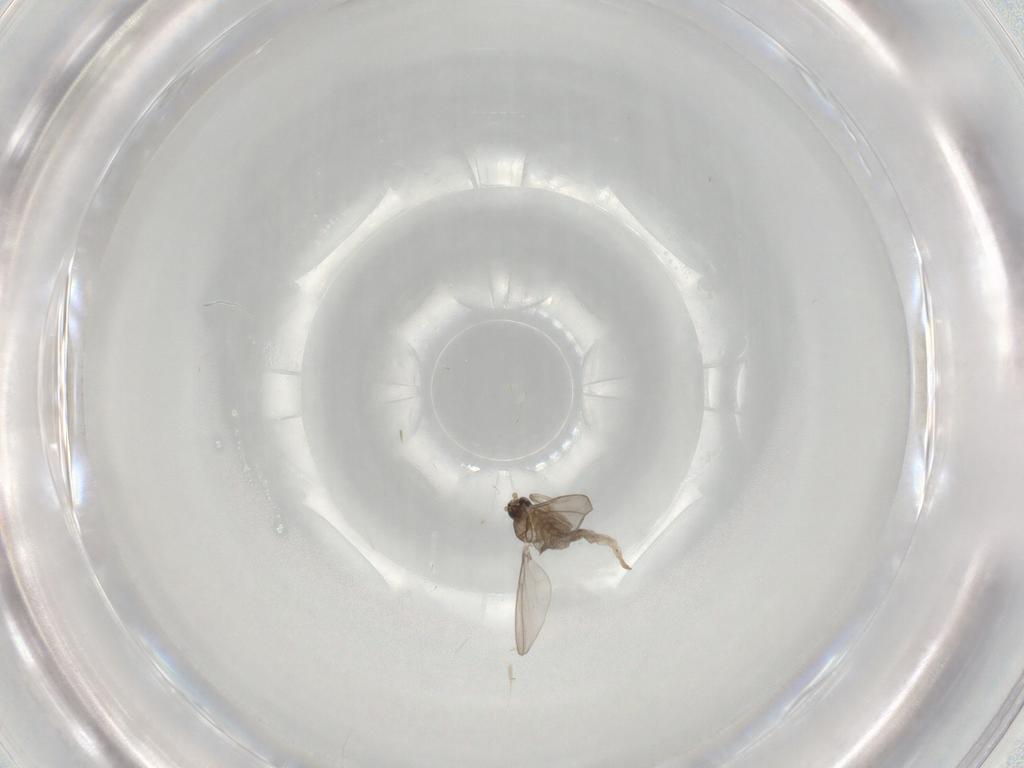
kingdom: Animalia
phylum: Arthropoda
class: Insecta
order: Diptera
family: Cecidomyiidae
